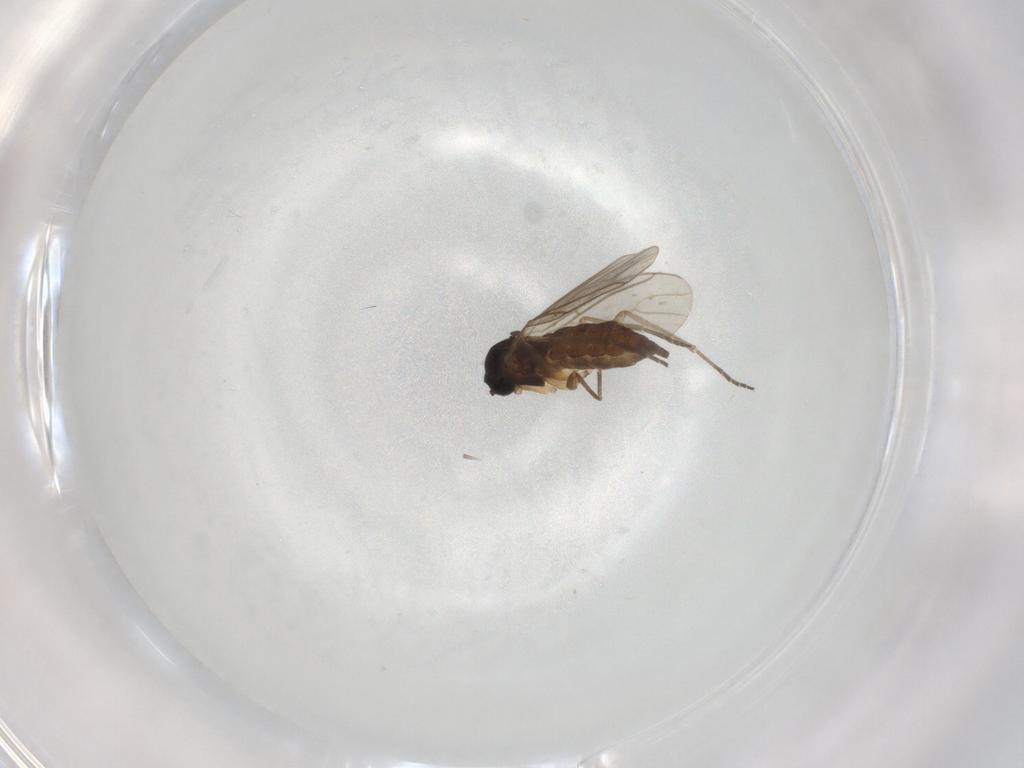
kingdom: Animalia
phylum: Arthropoda
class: Insecta
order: Diptera
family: Sciaridae
